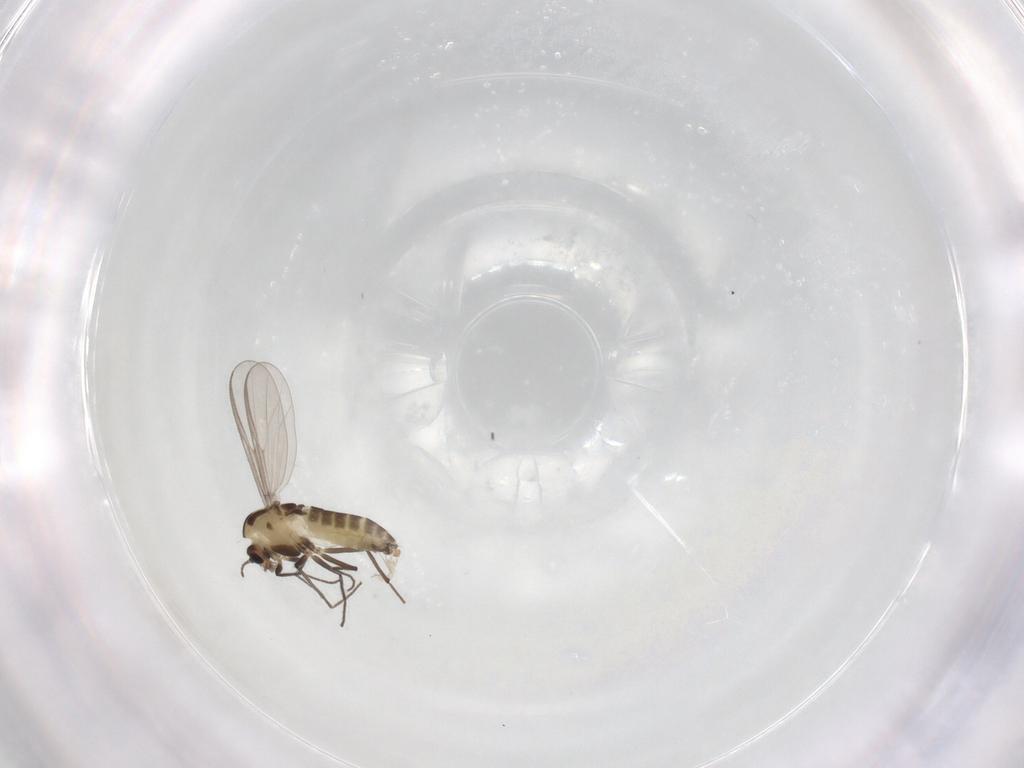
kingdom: Animalia
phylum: Arthropoda
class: Insecta
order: Diptera
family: Chironomidae
